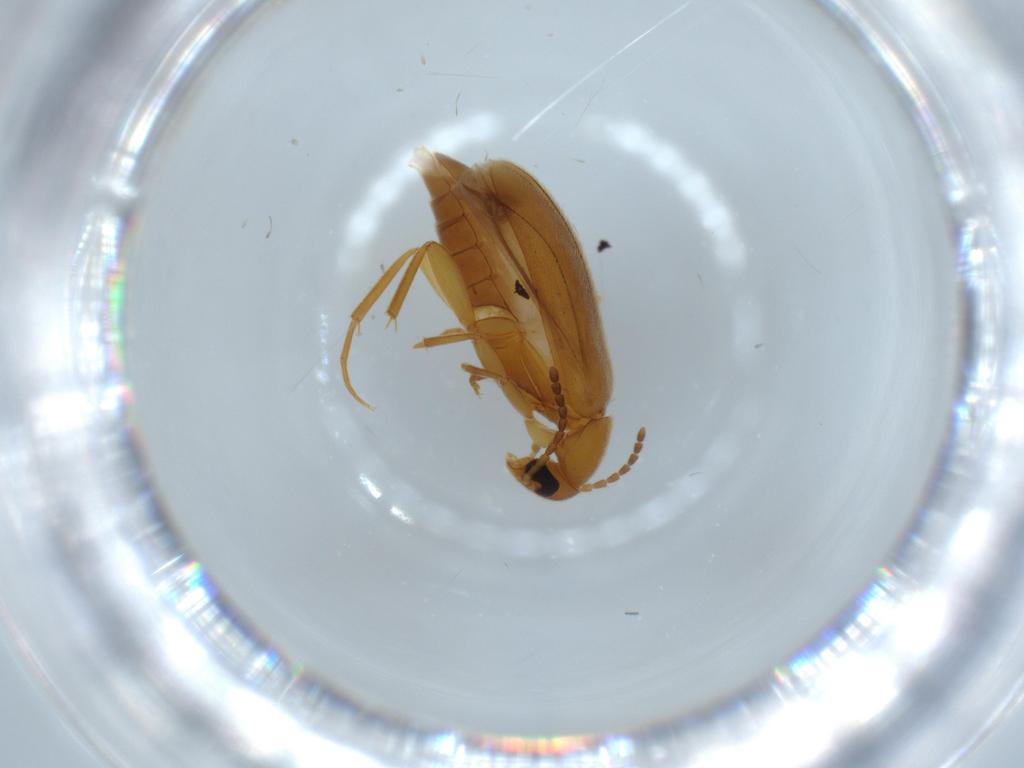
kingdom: Animalia
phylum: Arthropoda
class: Insecta
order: Coleoptera
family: Scraptiidae
